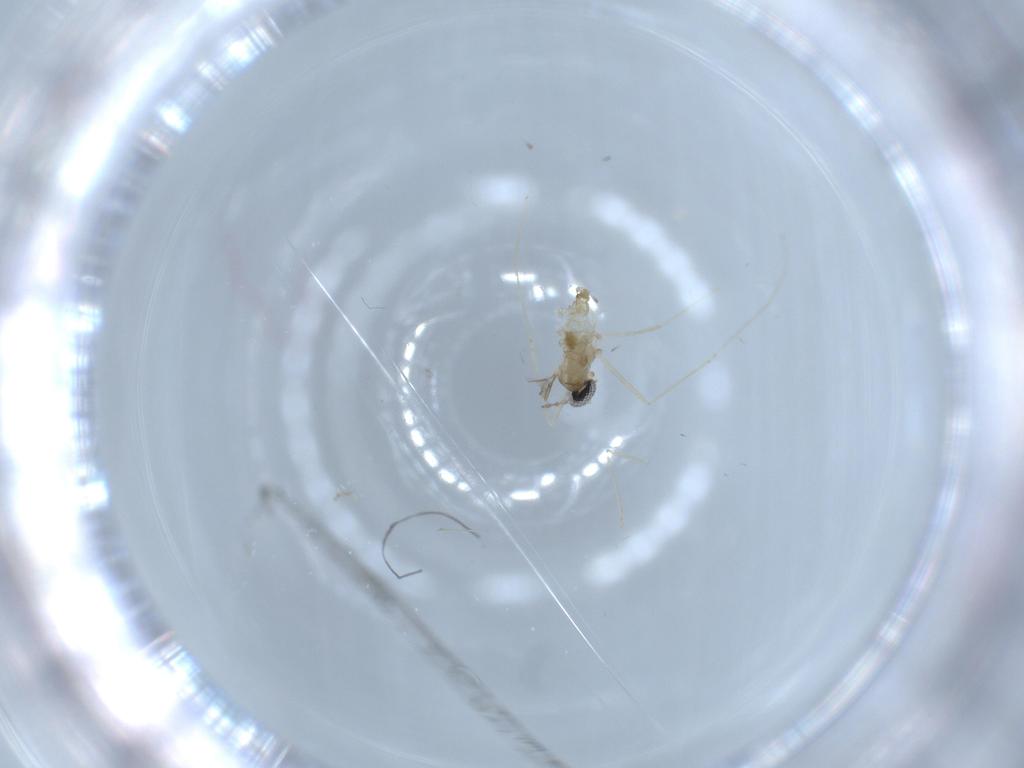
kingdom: Animalia
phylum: Arthropoda
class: Insecta
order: Diptera
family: Cecidomyiidae
